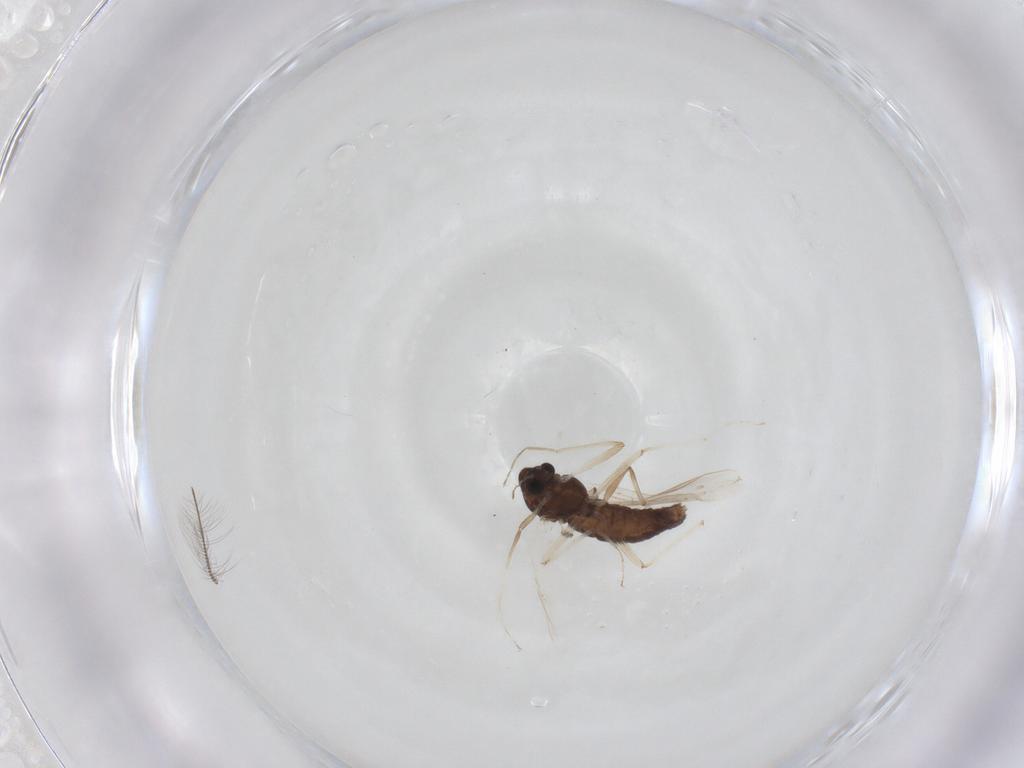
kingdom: Animalia
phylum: Arthropoda
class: Insecta
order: Diptera
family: Chironomidae
